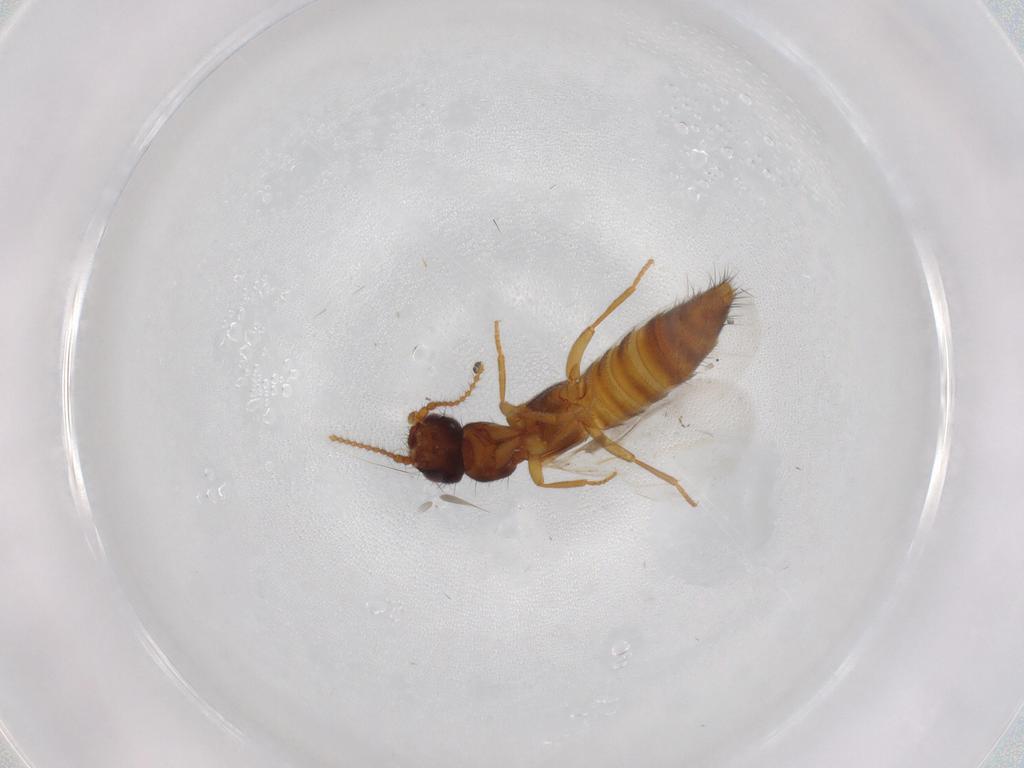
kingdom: Animalia
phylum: Arthropoda
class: Insecta
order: Coleoptera
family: Staphylinidae
